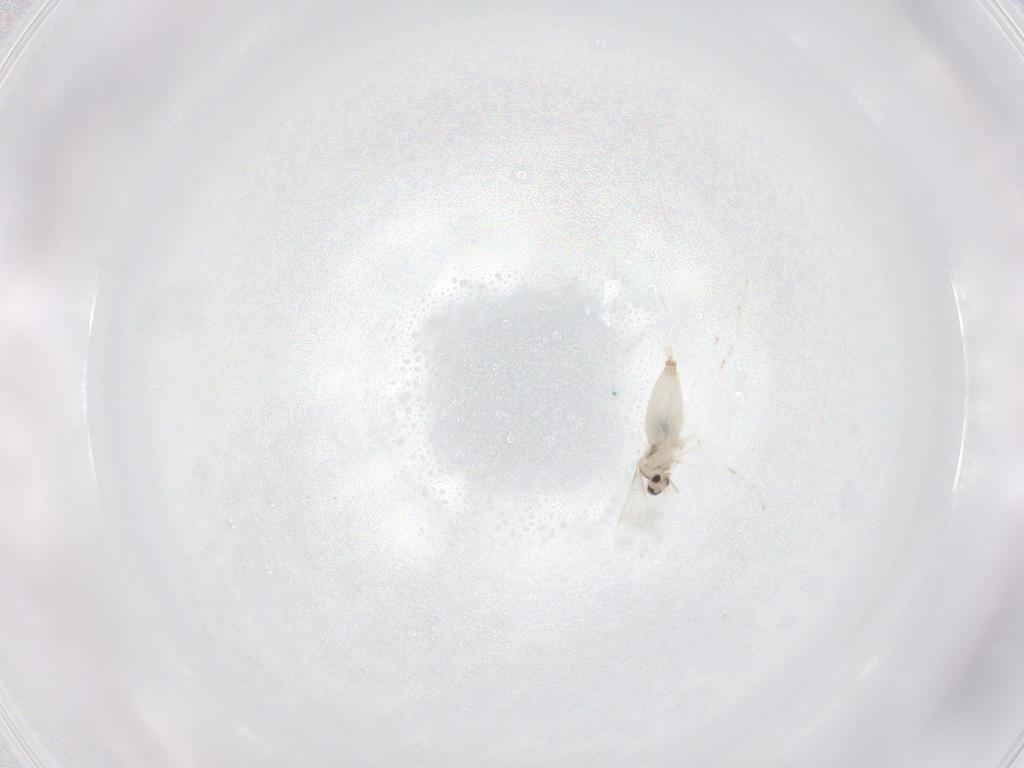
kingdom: Animalia
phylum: Arthropoda
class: Insecta
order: Diptera
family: Cecidomyiidae
